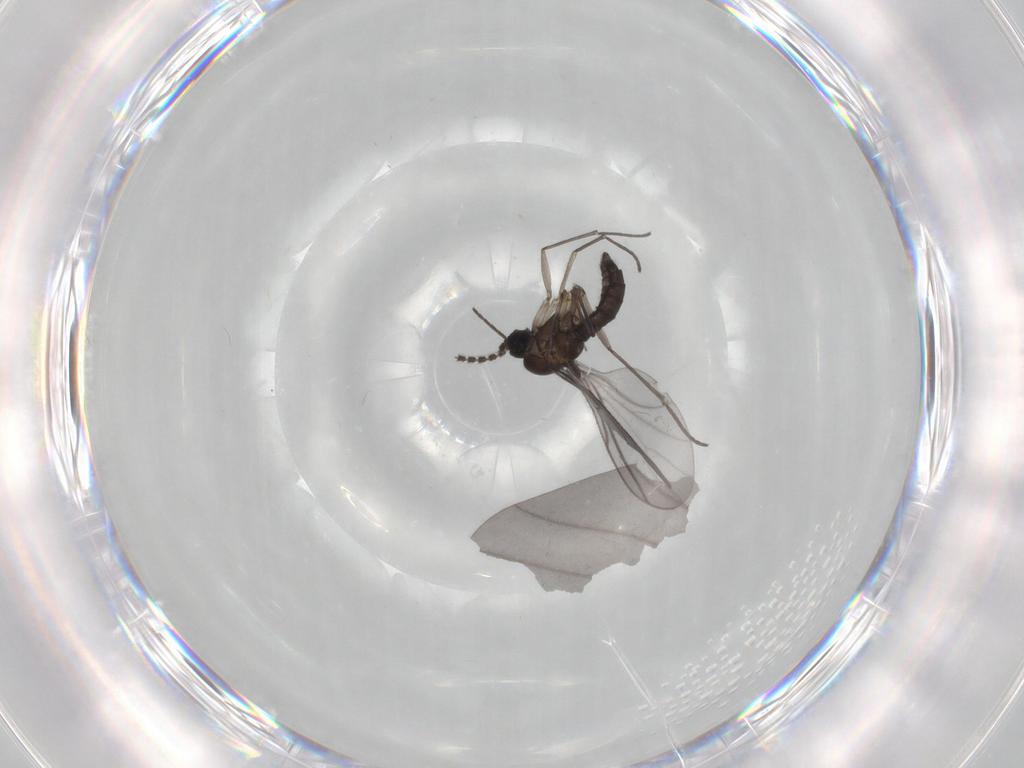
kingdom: Animalia
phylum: Arthropoda
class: Insecta
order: Diptera
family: Sciaridae
